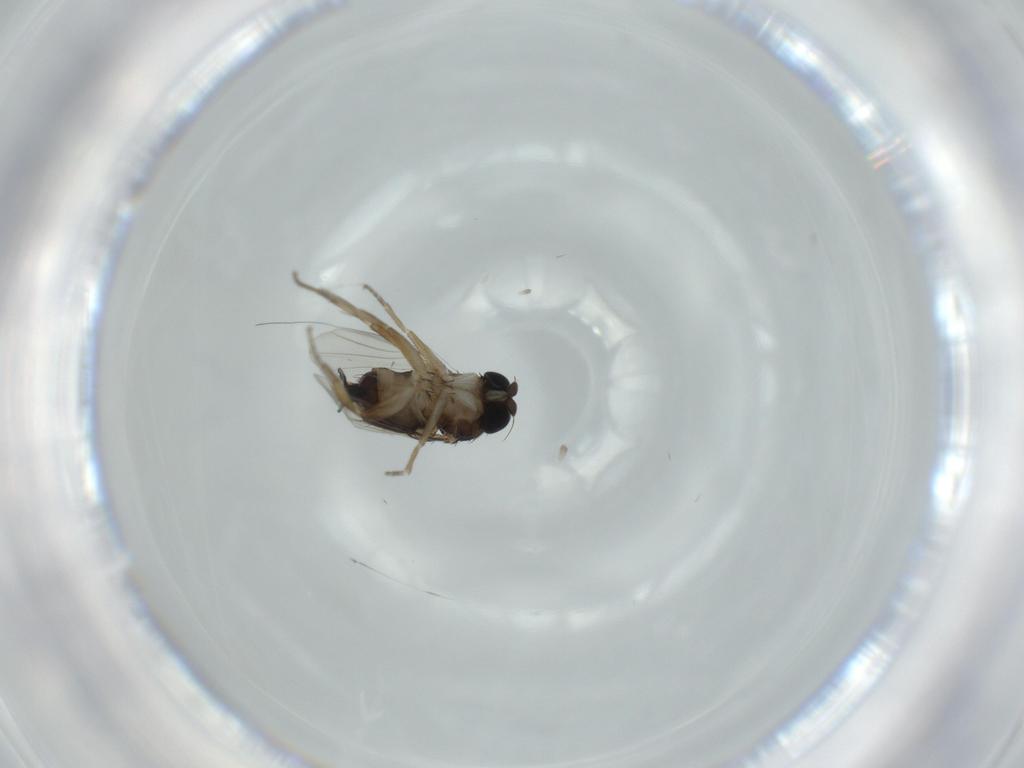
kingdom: Animalia
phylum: Arthropoda
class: Insecta
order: Diptera
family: Phoridae
